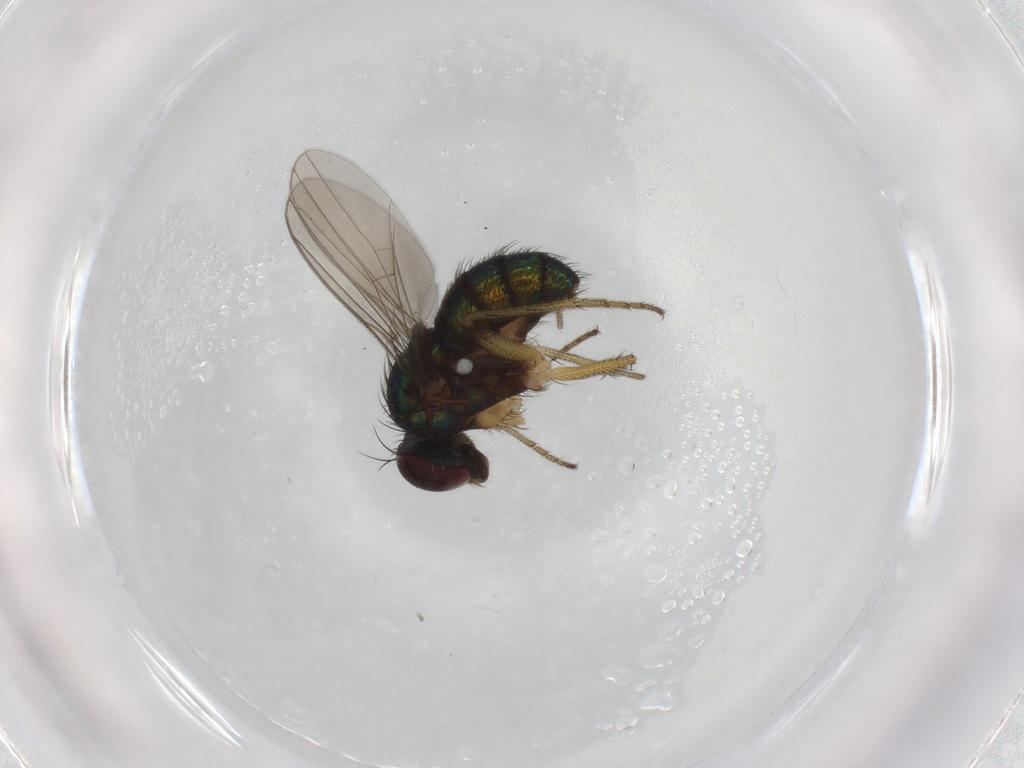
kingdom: Animalia
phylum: Arthropoda
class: Insecta
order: Diptera
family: Dolichopodidae
